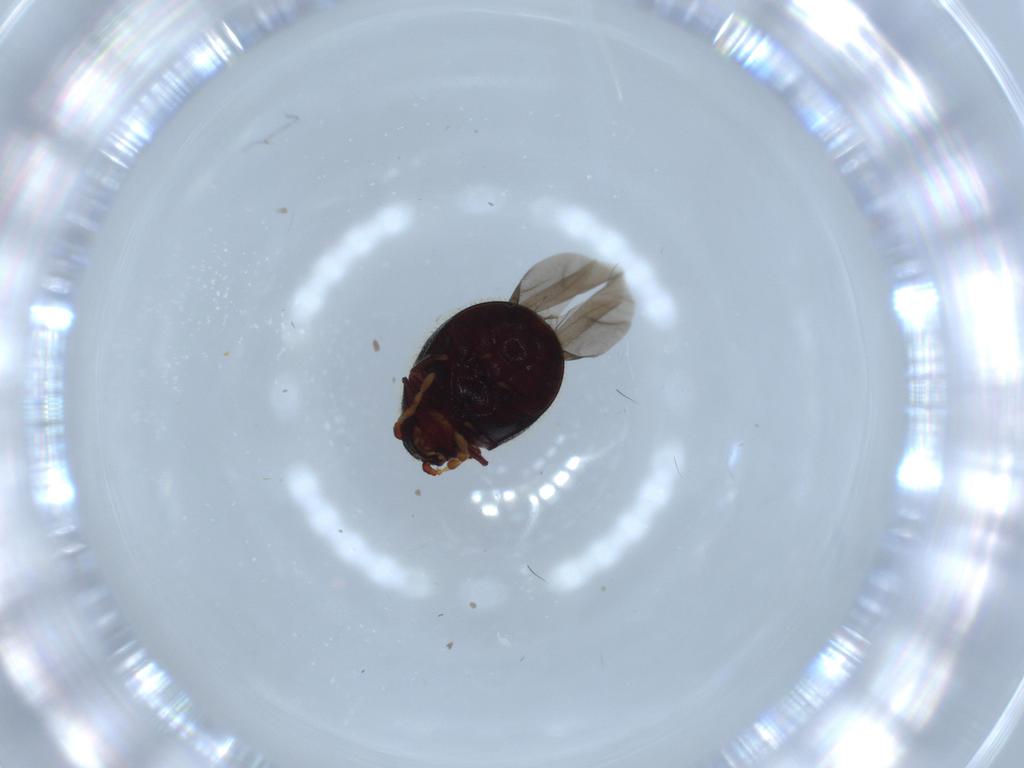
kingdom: Animalia
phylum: Arthropoda
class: Insecta
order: Coleoptera
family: Ptinidae
